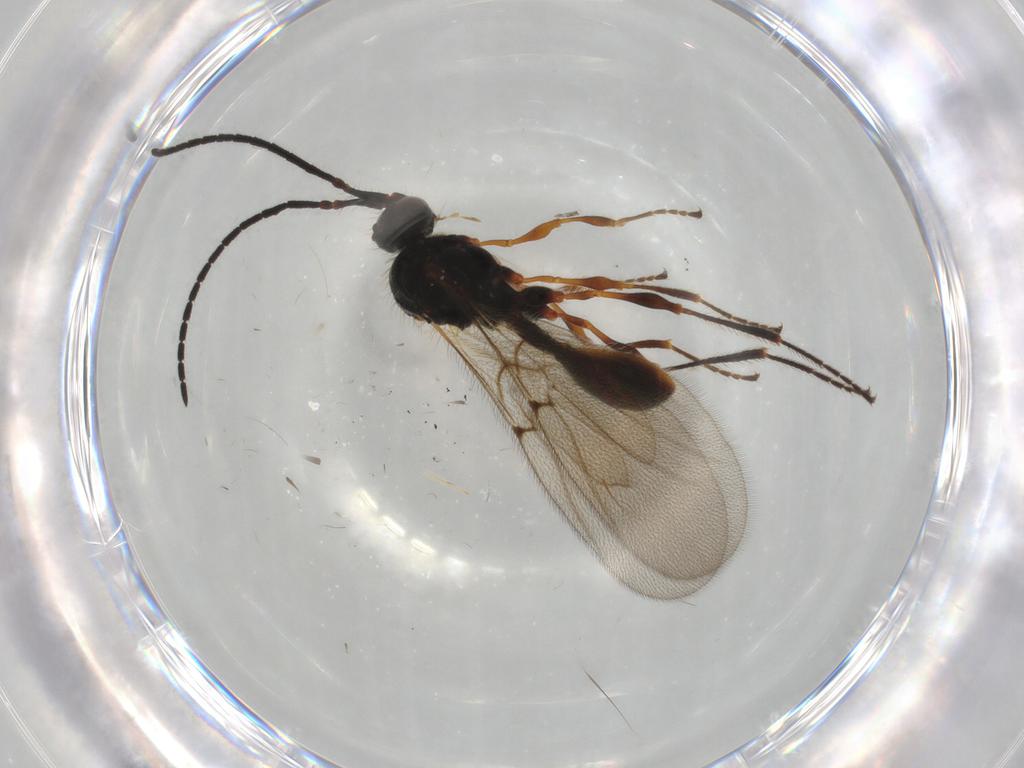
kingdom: Animalia
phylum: Arthropoda
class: Insecta
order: Hymenoptera
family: Diapriidae
